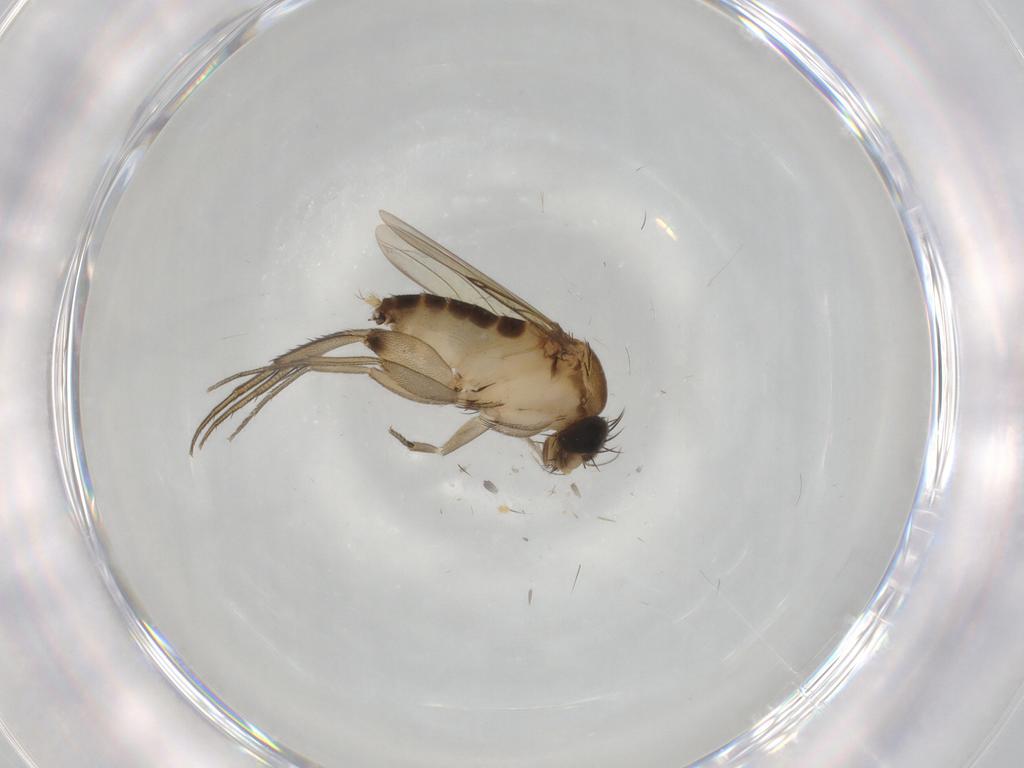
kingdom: Animalia
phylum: Arthropoda
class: Insecta
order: Diptera
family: Phoridae
